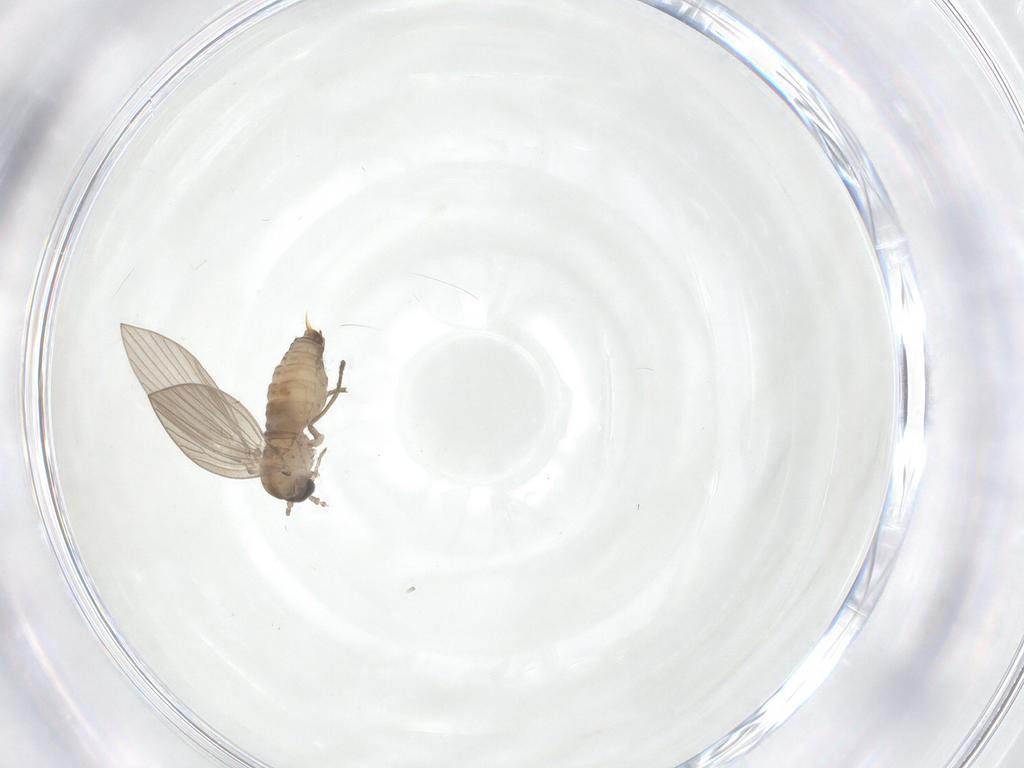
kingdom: Animalia
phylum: Arthropoda
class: Insecta
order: Diptera
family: Psychodidae
